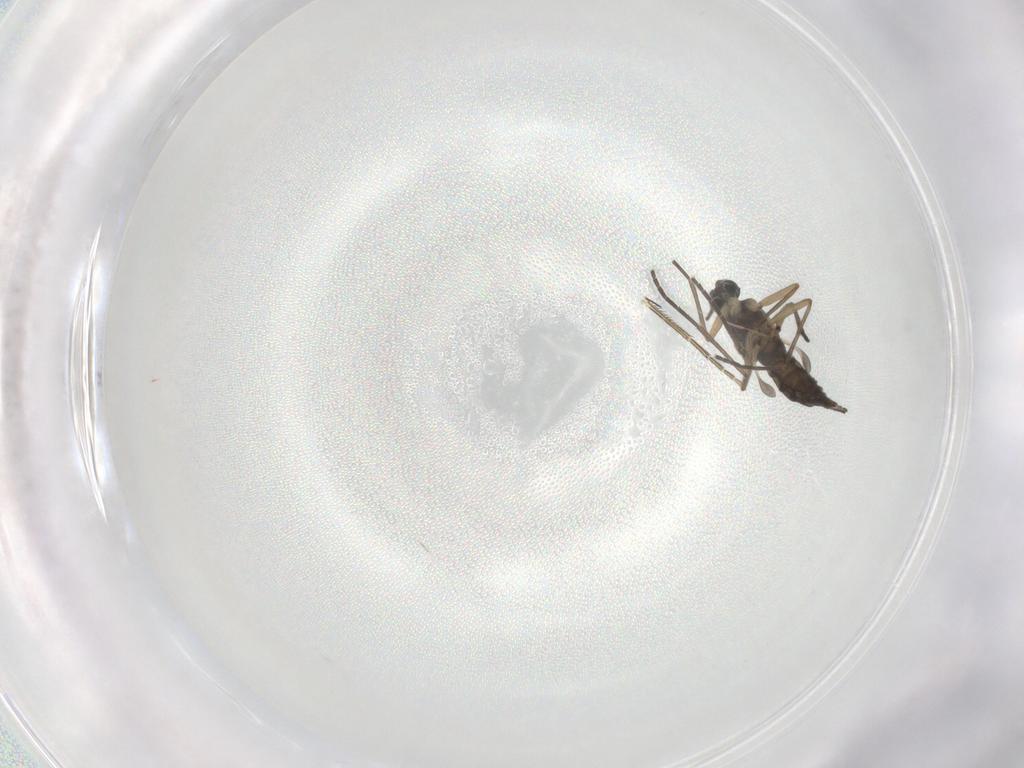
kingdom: Animalia
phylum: Arthropoda
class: Insecta
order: Diptera
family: Sciaridae
